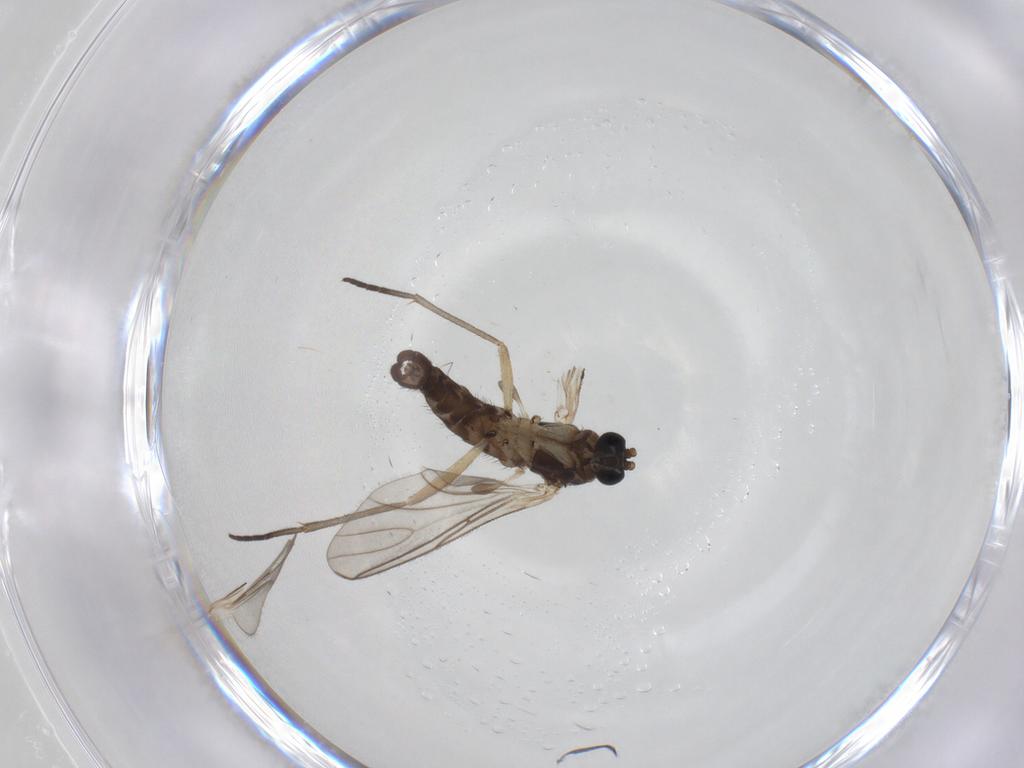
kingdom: Animalia
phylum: Arthropoda
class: Insecta
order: Diptera
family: Sciaridae
